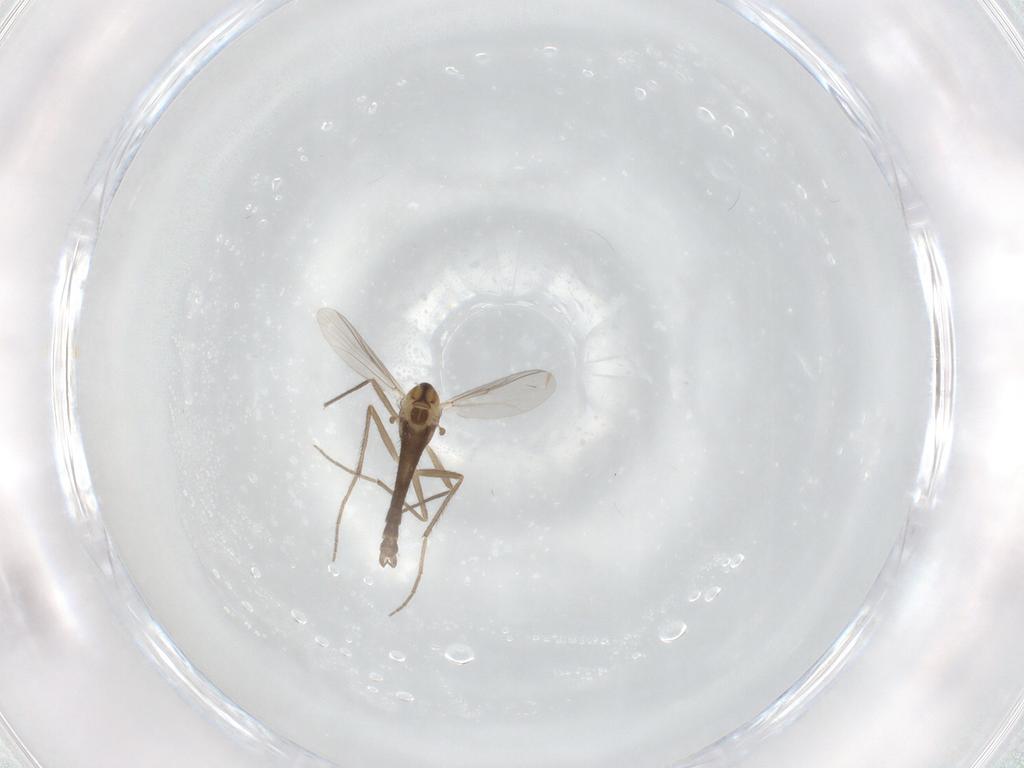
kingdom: Animalia
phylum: Arthropoda
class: Insecta
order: Diptera
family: Chironomidae
